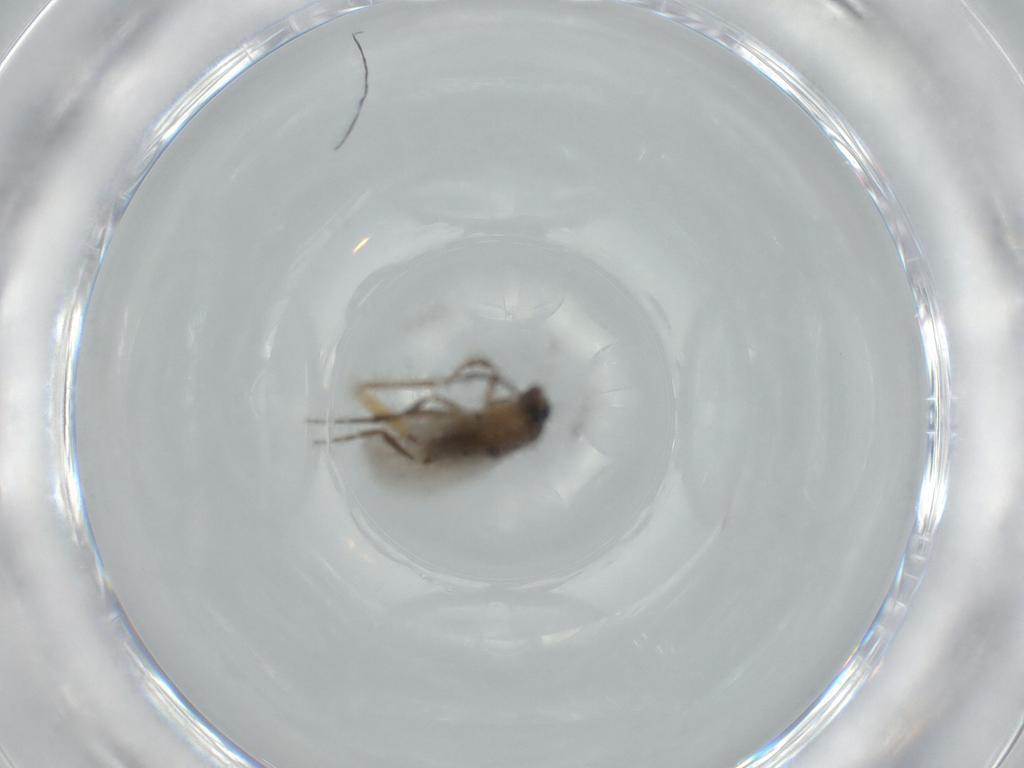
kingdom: Animalia
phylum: Arthropoda
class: Insecta
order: Diptera
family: Sciaridae
